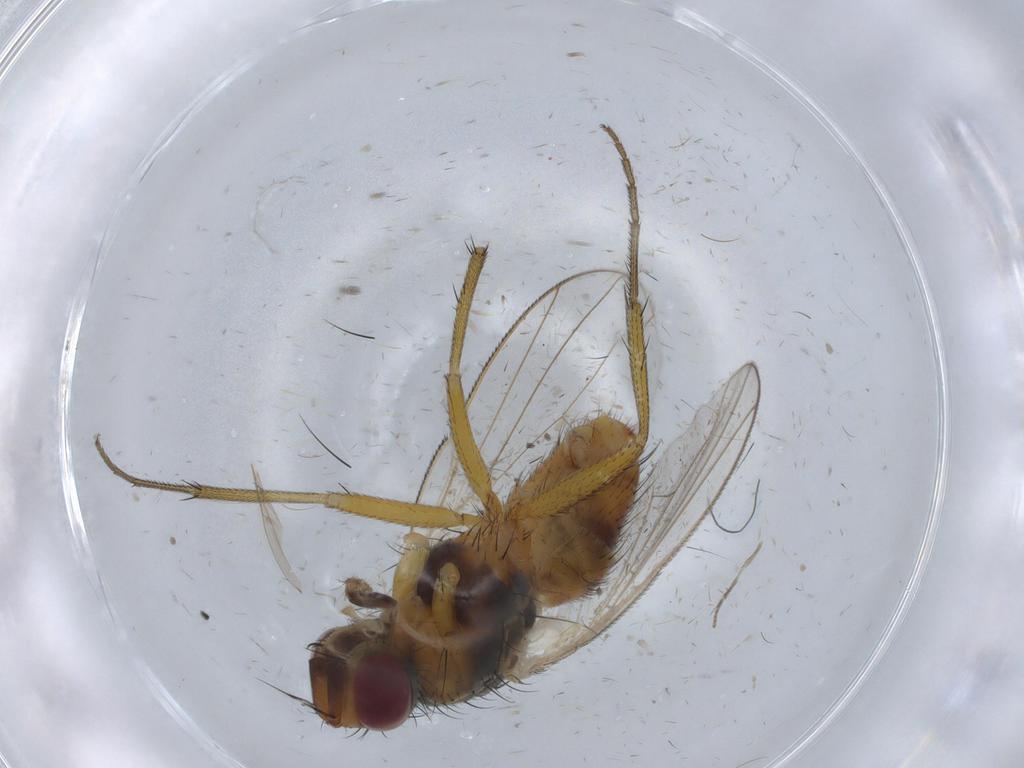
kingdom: Animalia
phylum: Arthropoda
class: Insecta
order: Diptera
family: Muscidae
